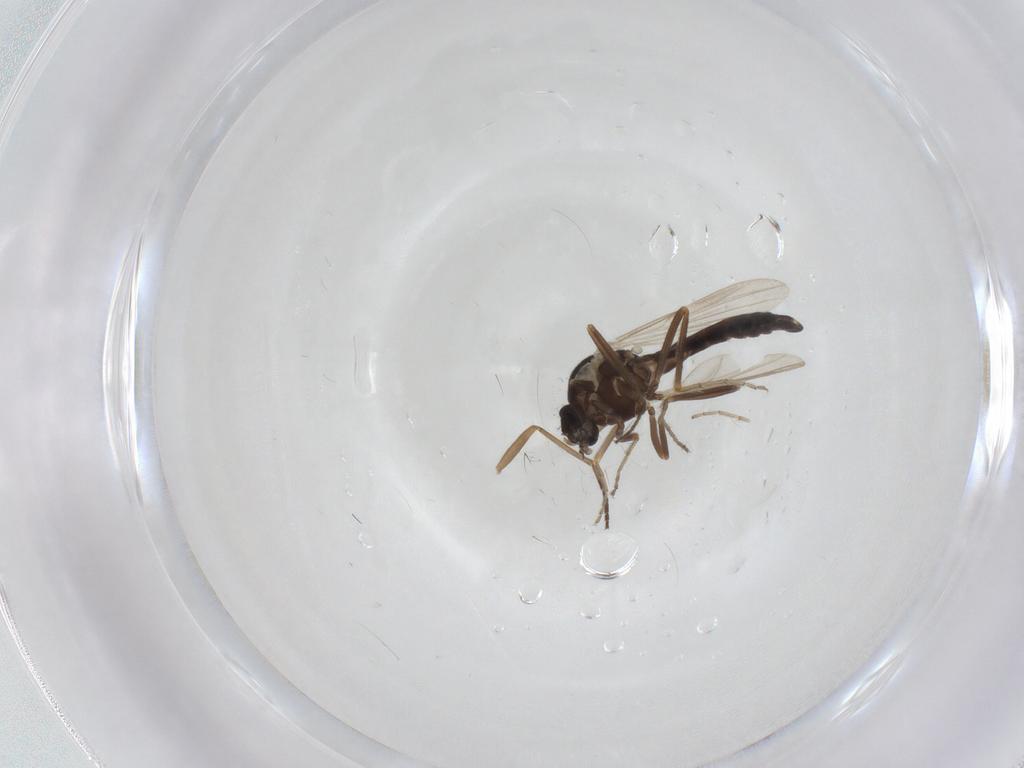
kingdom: Animalia
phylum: Arthropoda
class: Insecta
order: Diptera
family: Ceratopogonidae
